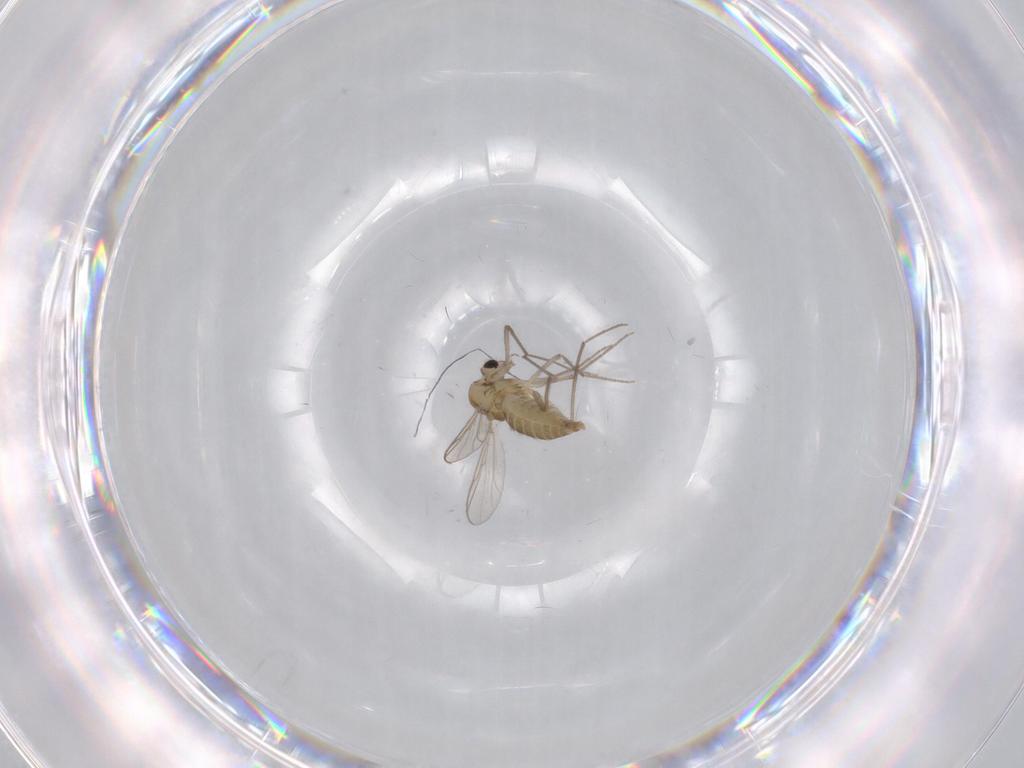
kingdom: Animalia
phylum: Arthropoda
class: Insecta
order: Diptera
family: Chironomidae
